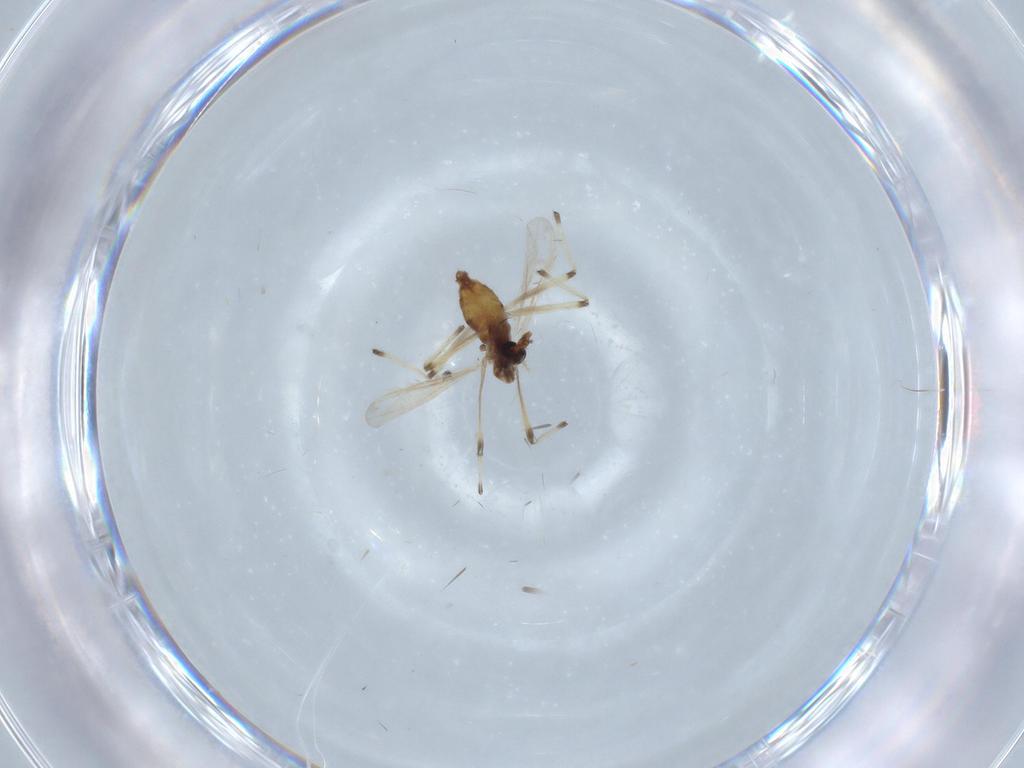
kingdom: Animalia
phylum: Arthropoda
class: Insecta
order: Diptera
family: Chironomidae
